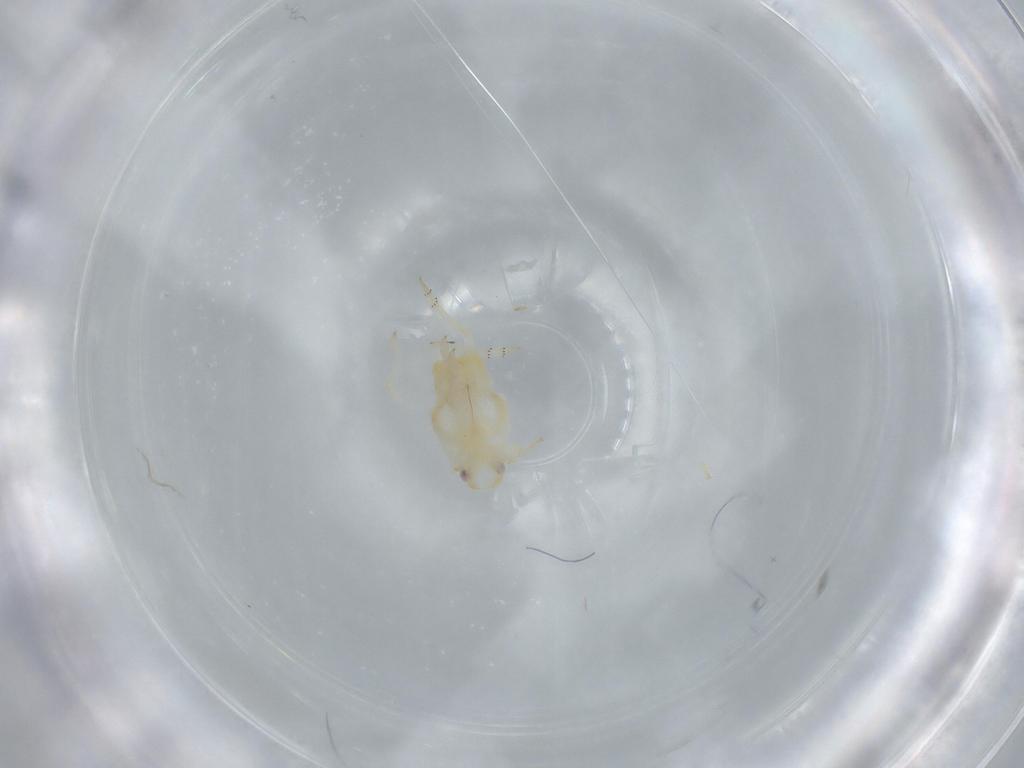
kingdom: Animalia
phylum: Arthropoda
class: Insecta
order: Hemiptera
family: Flatidae
